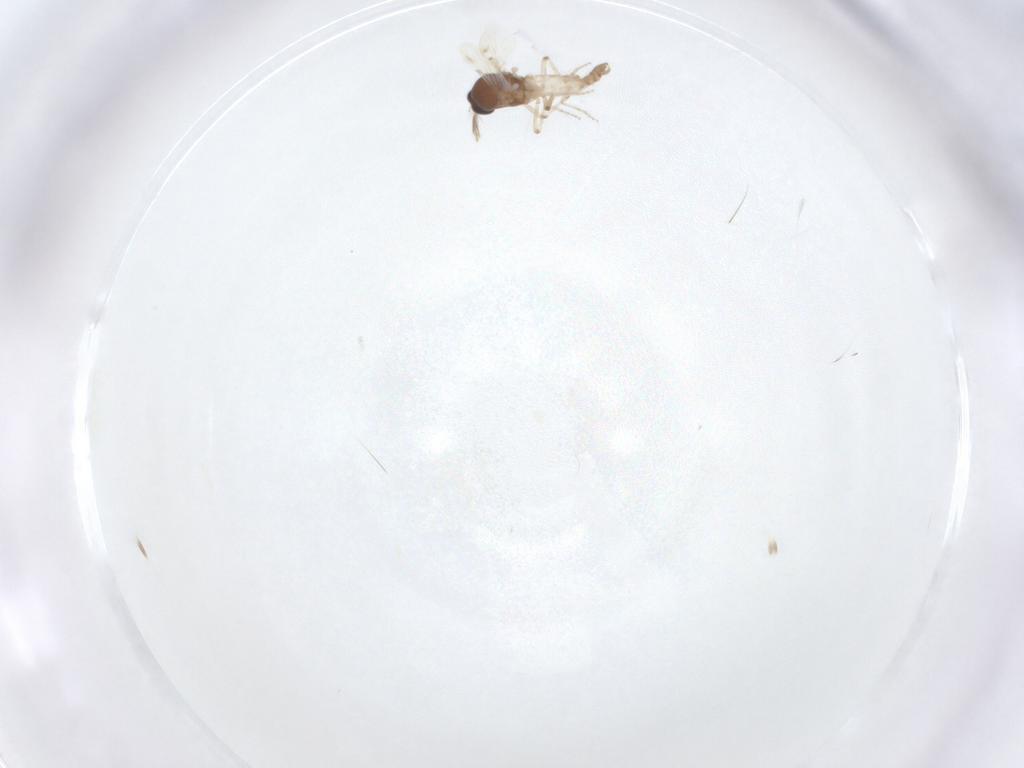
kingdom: Animalia
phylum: Arthropoda
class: Insecta
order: Diptera
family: Ceratopogonidae
